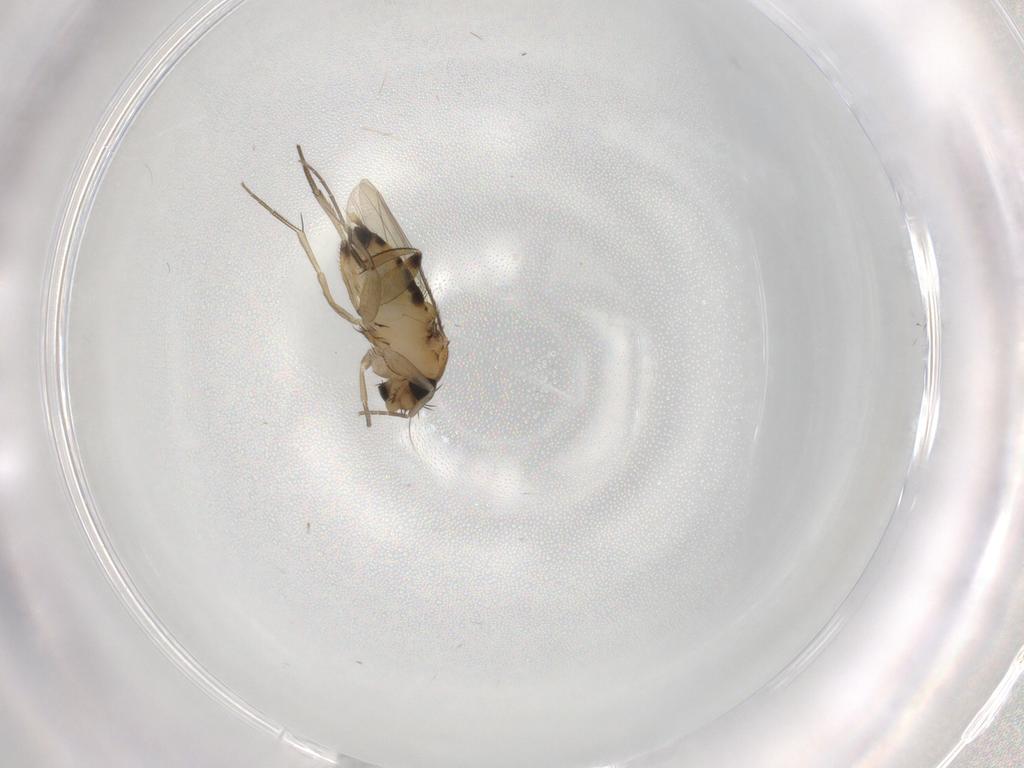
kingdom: Animalia
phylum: Arthropoda
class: Insecta
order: Diptera
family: Phoridae
